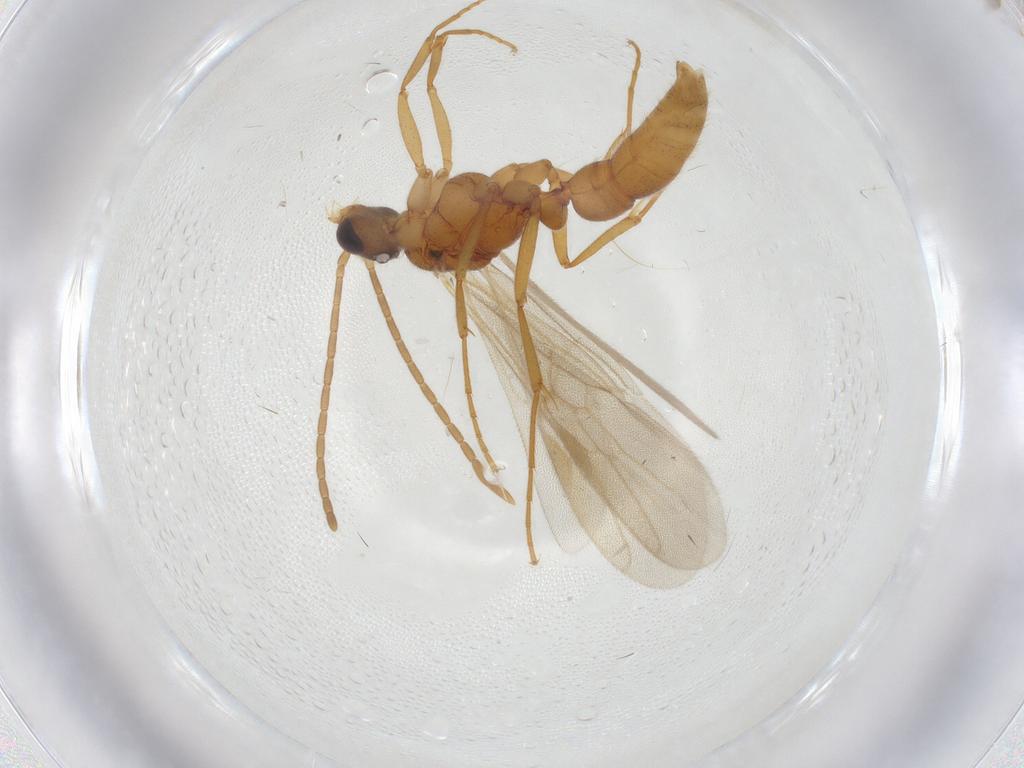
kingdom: Animalia
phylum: Arthropoda
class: Insecta
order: Hymenoptera
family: Formicidae
